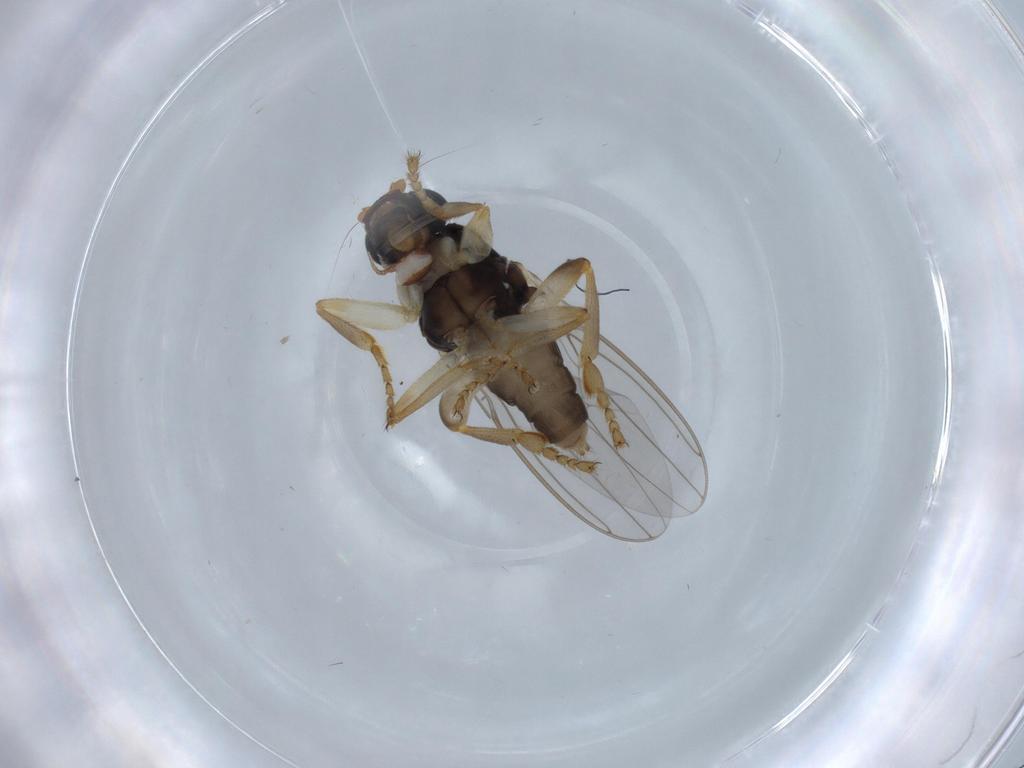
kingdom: Animalia
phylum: Arthropoda
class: Insecta
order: Diptera
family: Sphaeroceridae
